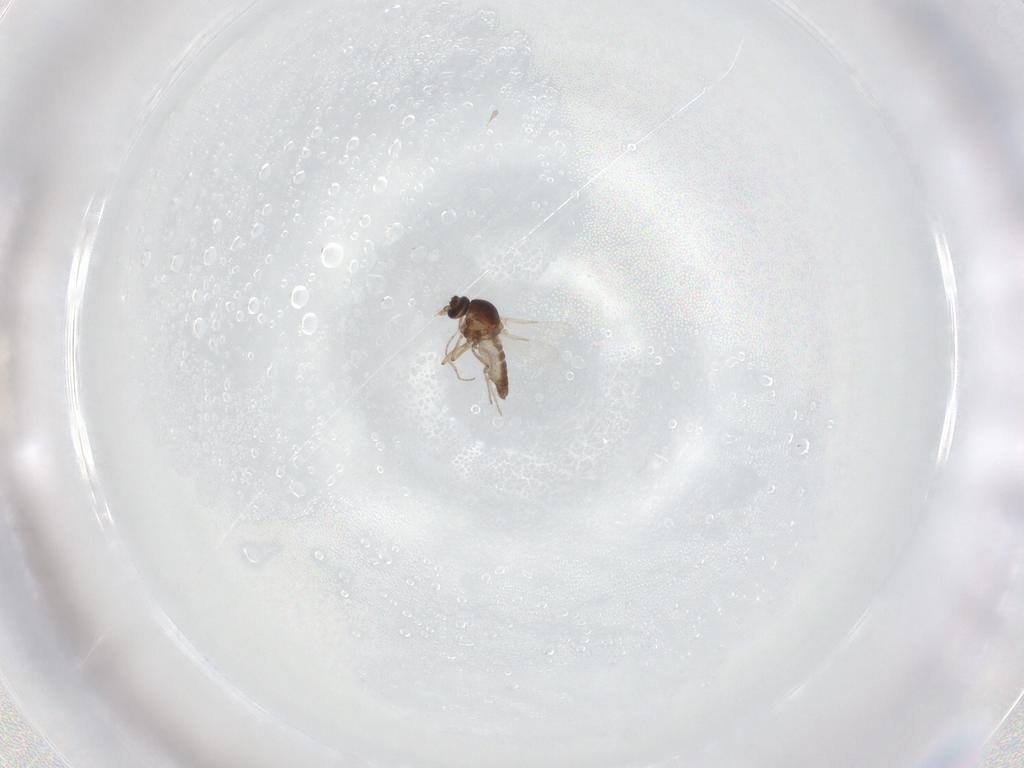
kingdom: Animalia
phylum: Arthropoda
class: Insecta
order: Diptera
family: Ceratopogonidae
